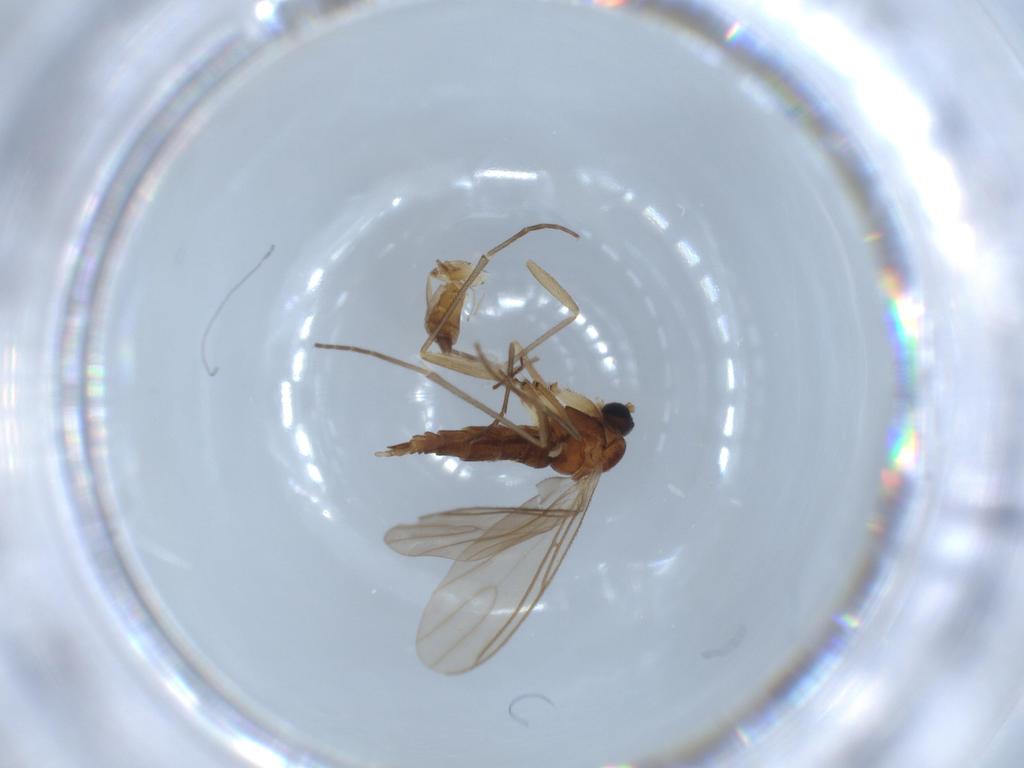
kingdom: Animalia
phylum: Arthropoda
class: Insecta
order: Diptera
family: Sciaridae
